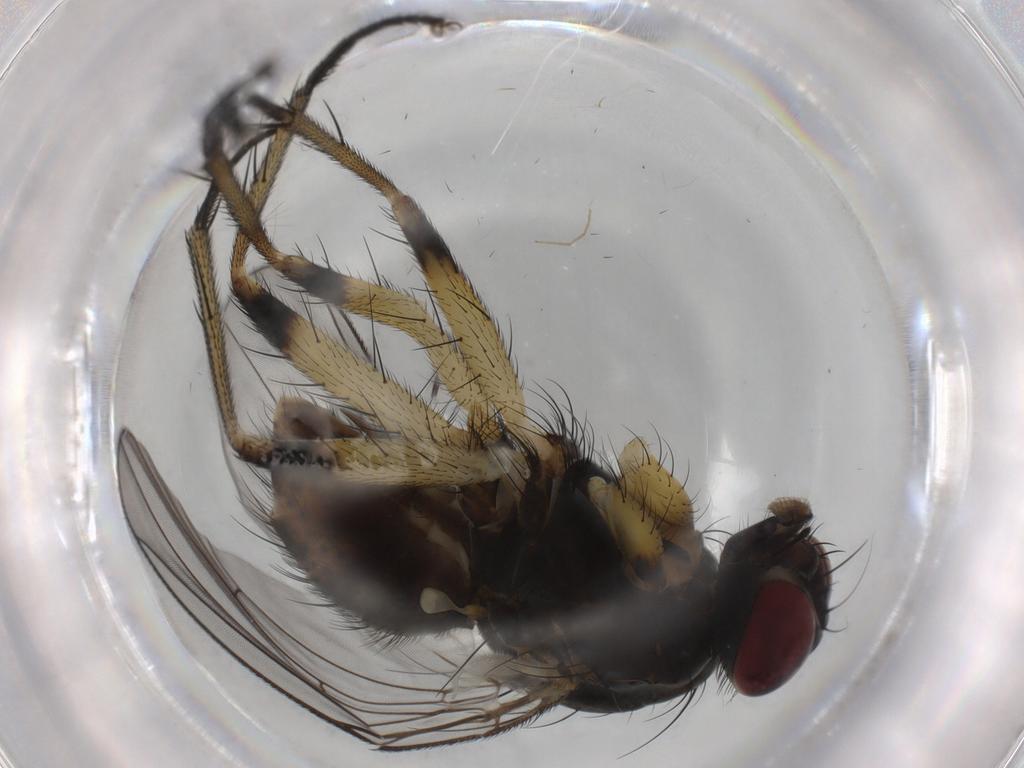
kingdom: Animalia
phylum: Arthropoda
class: Insecta
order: Diptera
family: Muscidae
